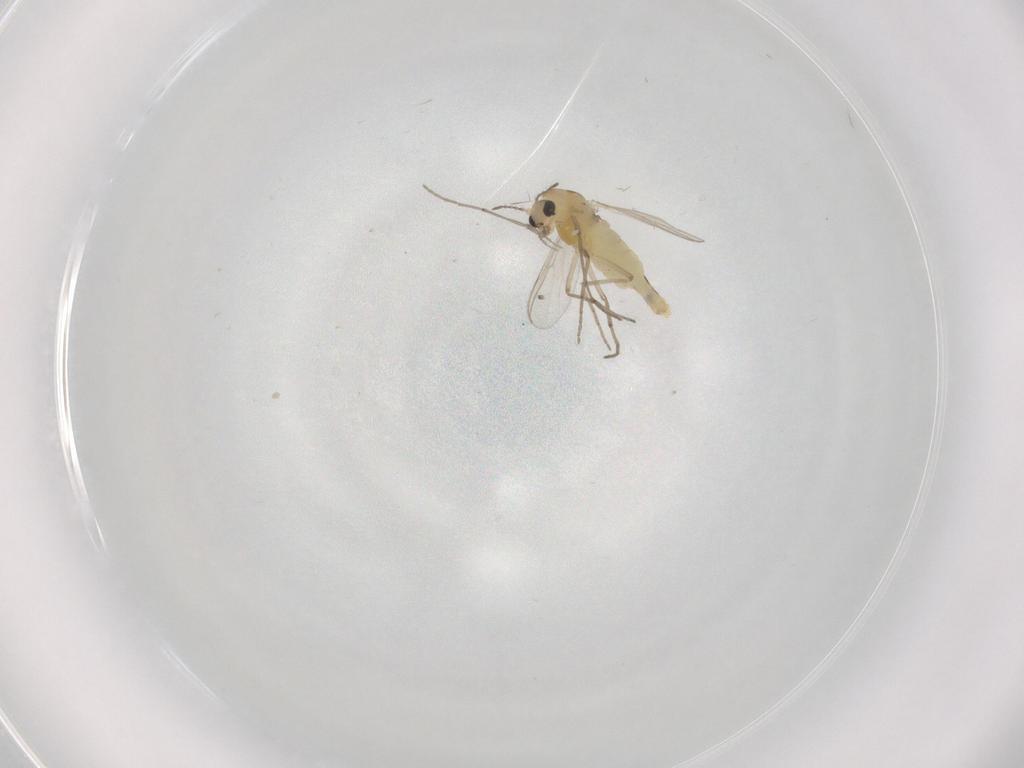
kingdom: Animalia
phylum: Arthropoda
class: Insecta
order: Diptera
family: Chironomidae
